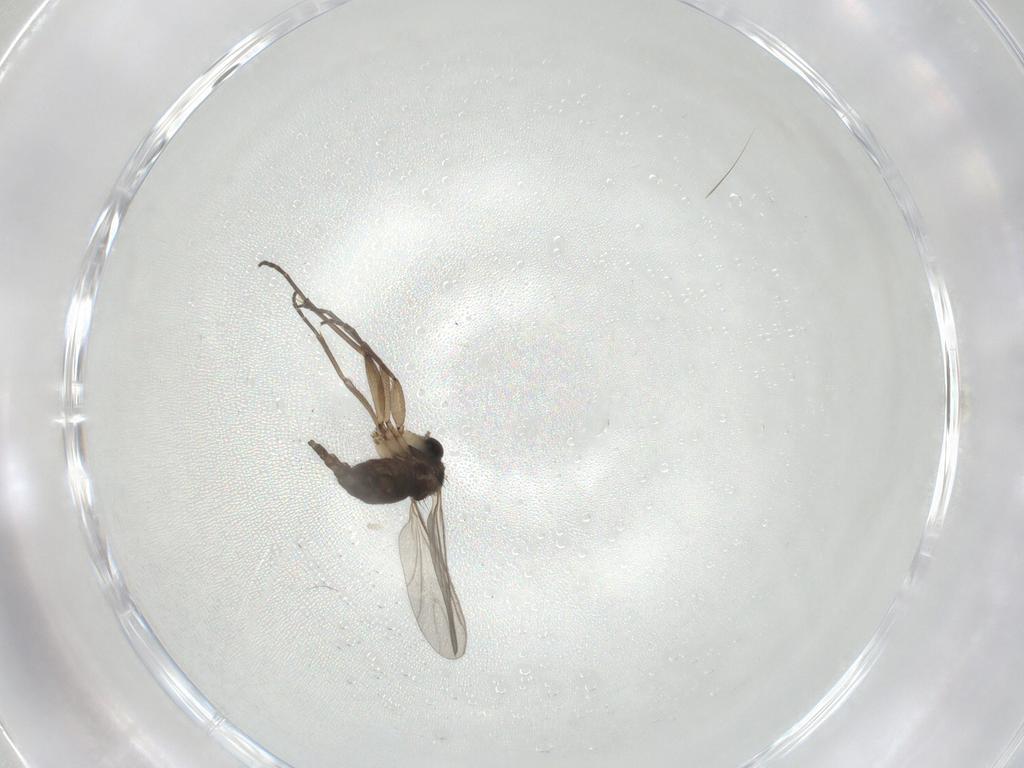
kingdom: Animalia
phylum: Arthropoda
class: Insecta
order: Diptera
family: Sciaridae
